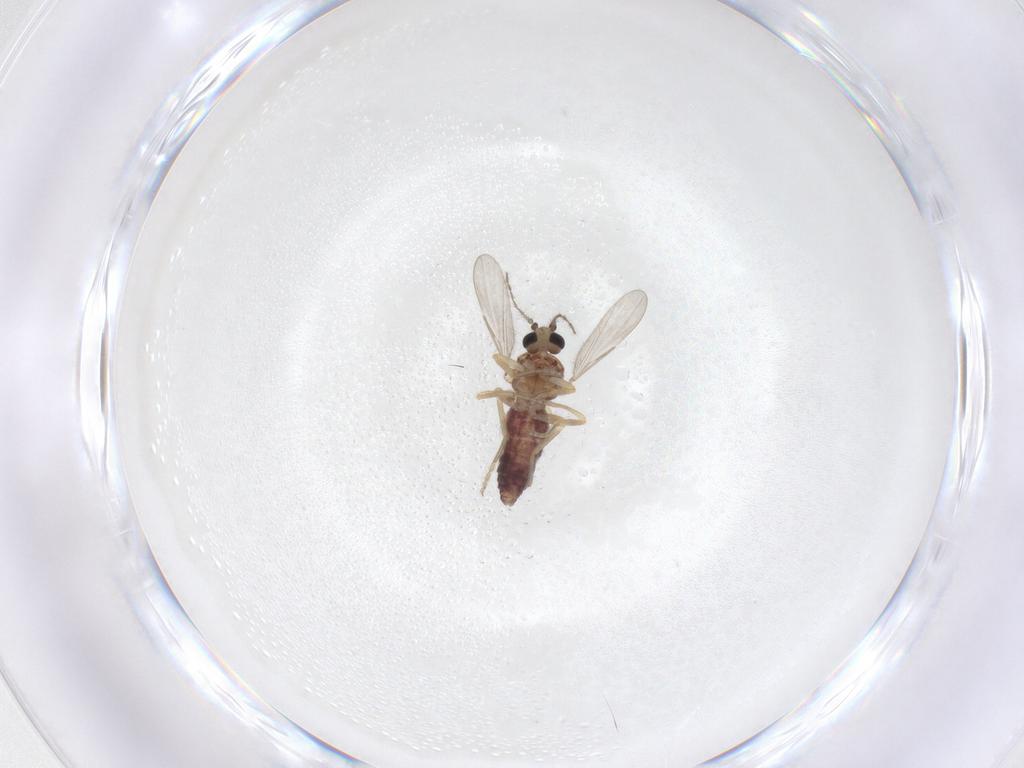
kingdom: Animalia
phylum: Arthropoda
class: Insecta
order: Diptera
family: Ceratopogonidae
